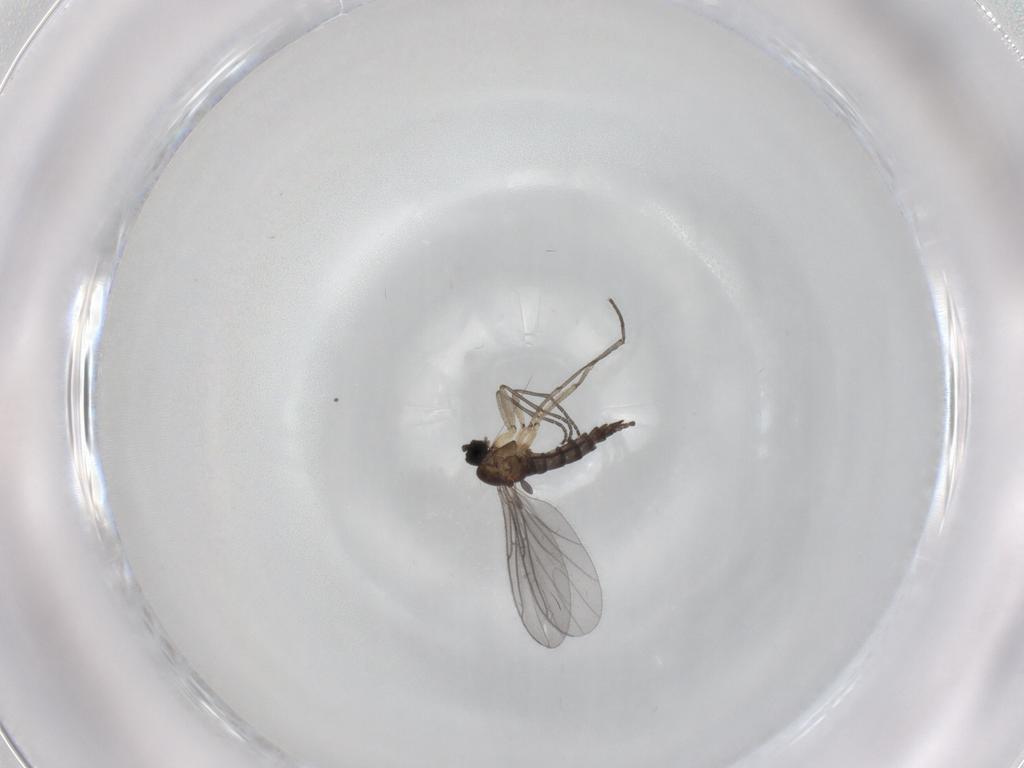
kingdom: Animalia
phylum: Arthropoda
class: Insecta
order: Diptera
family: Sciaridae
